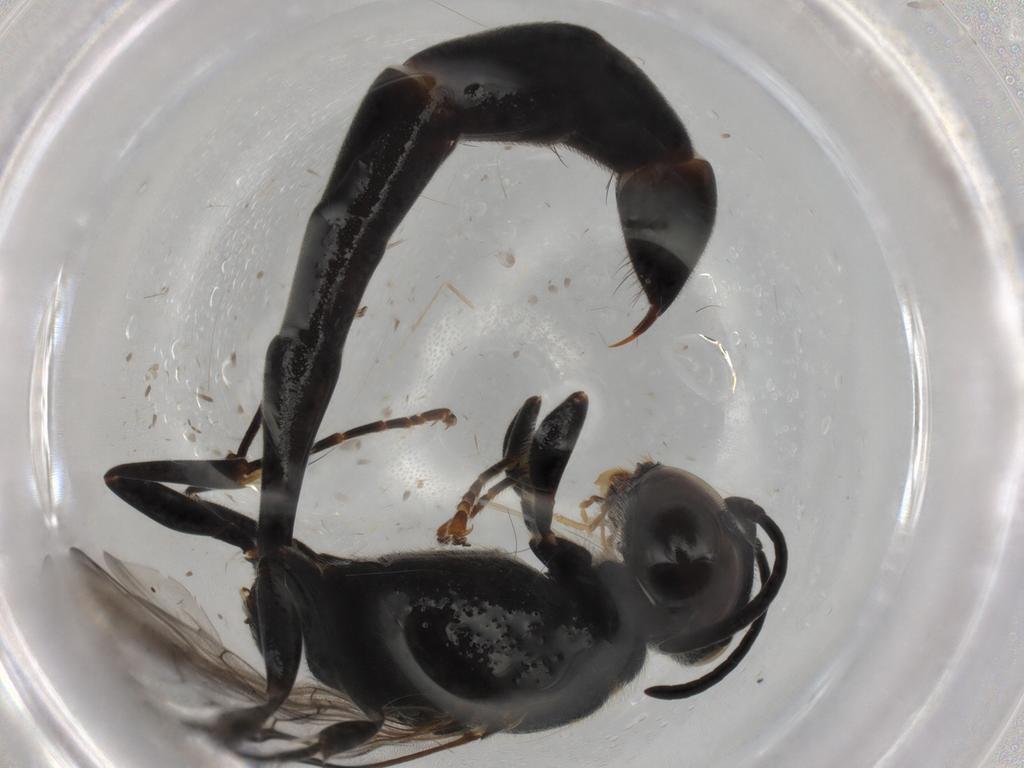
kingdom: Animalia
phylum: Arthropoda
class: Insecta
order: Hymenoptera
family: Crabronidae
